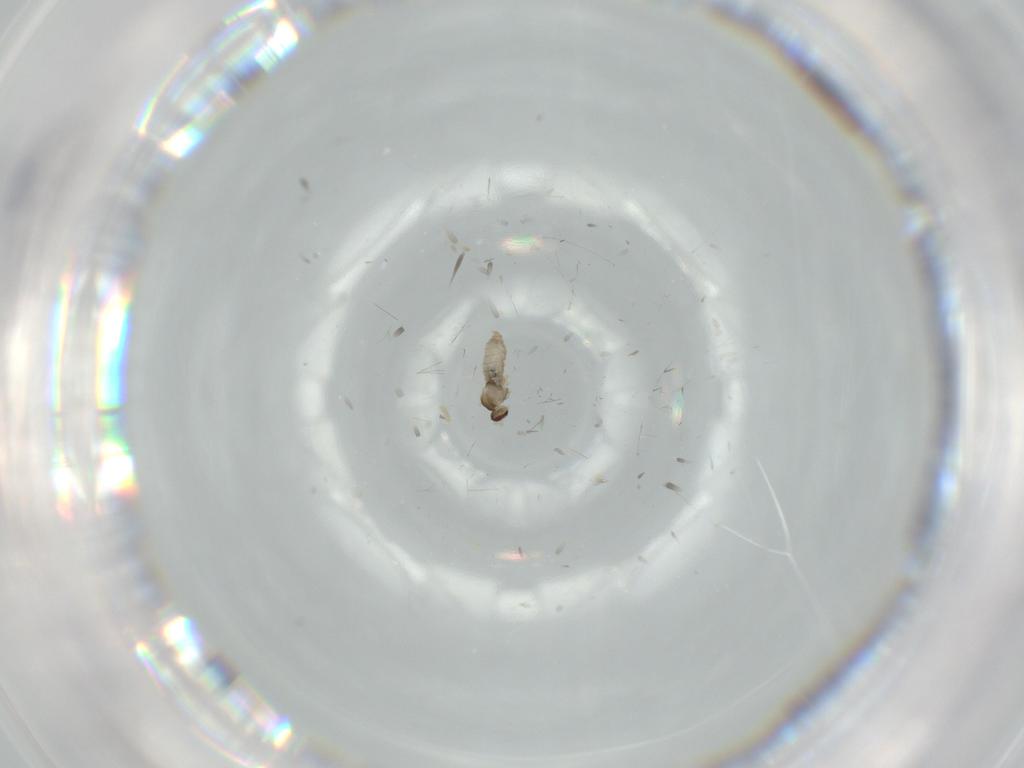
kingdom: Animalia
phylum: Arthropoda
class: Insecta
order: Diptera
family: Cecidomyiidae
